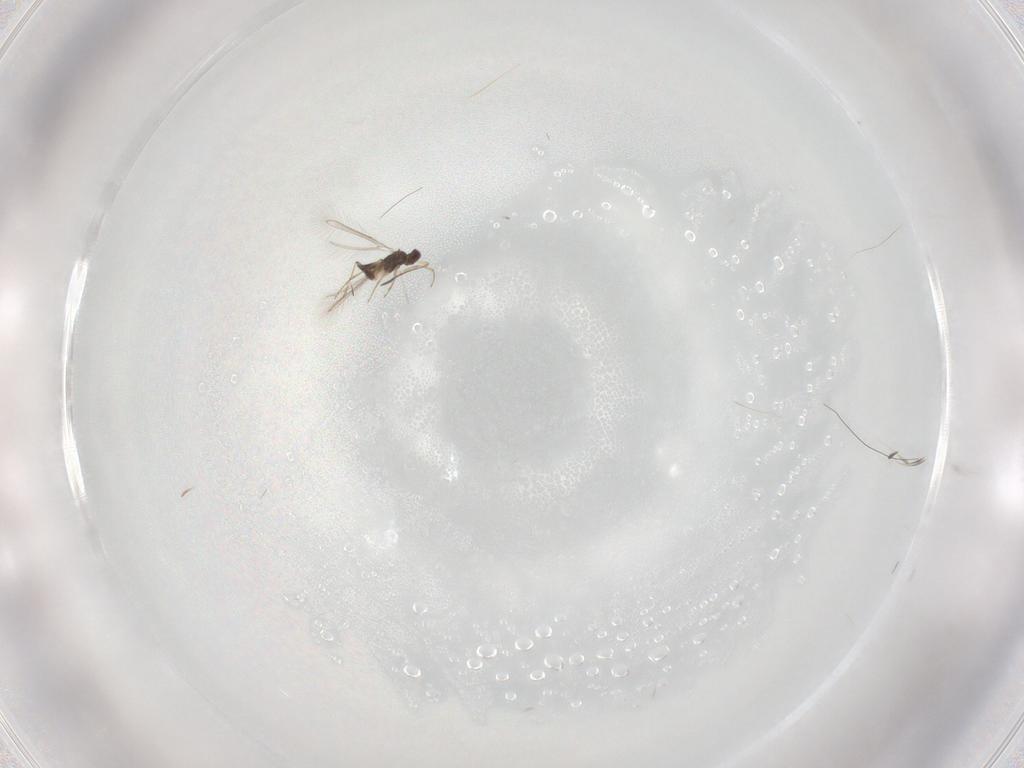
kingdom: Animalia
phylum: Arthropoda
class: Insecta
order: Hymenoptera
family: Mymaridae
